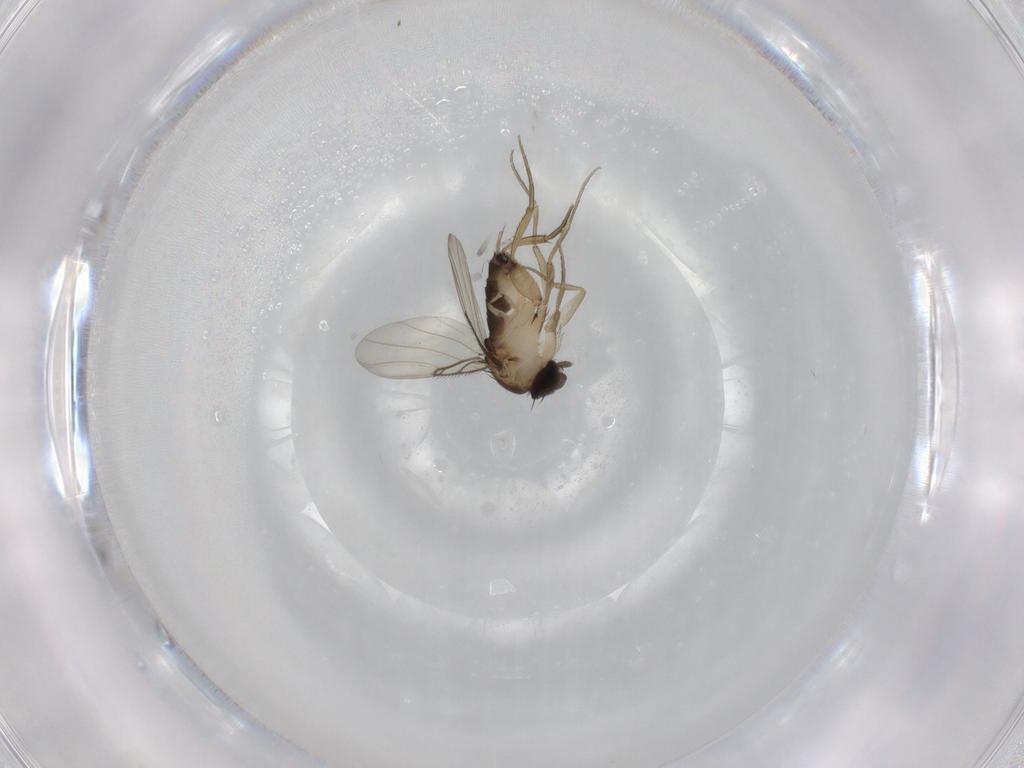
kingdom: Animalia
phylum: Arthropoda
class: Insecta
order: Diptera
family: Phoridae
